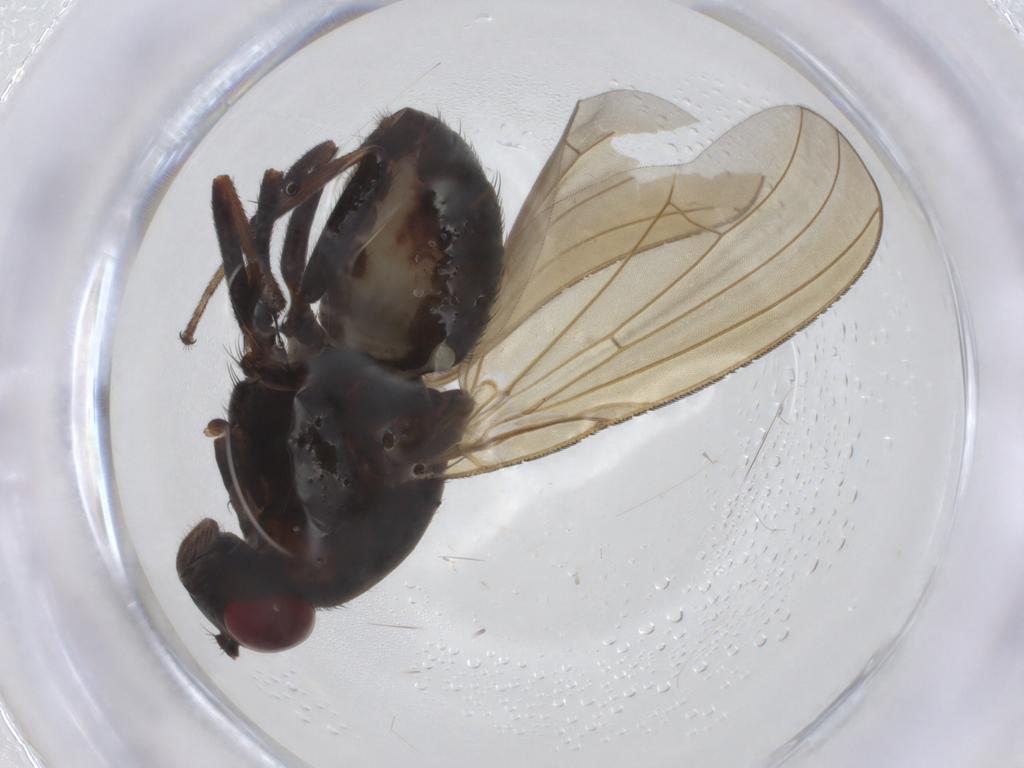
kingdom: Animalia
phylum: Arthropoda
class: Insecta
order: Diptera
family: Lauxaniidae
